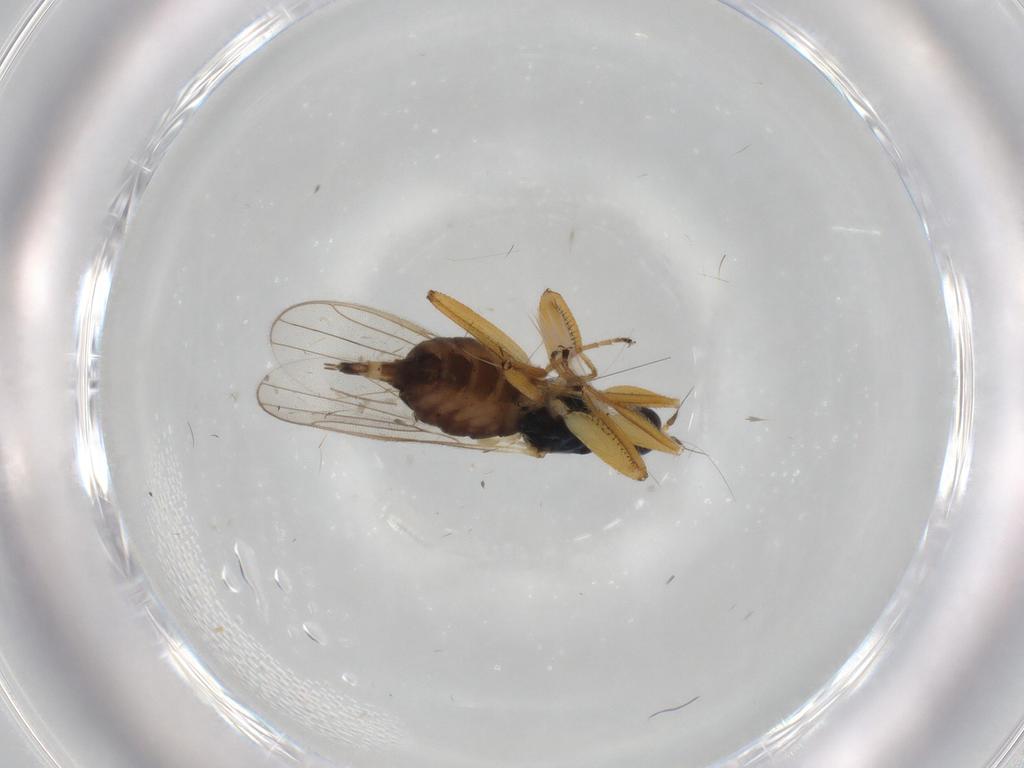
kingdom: Animalia
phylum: Arthropoda
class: Insecta
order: Diptera
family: Hybotidae
